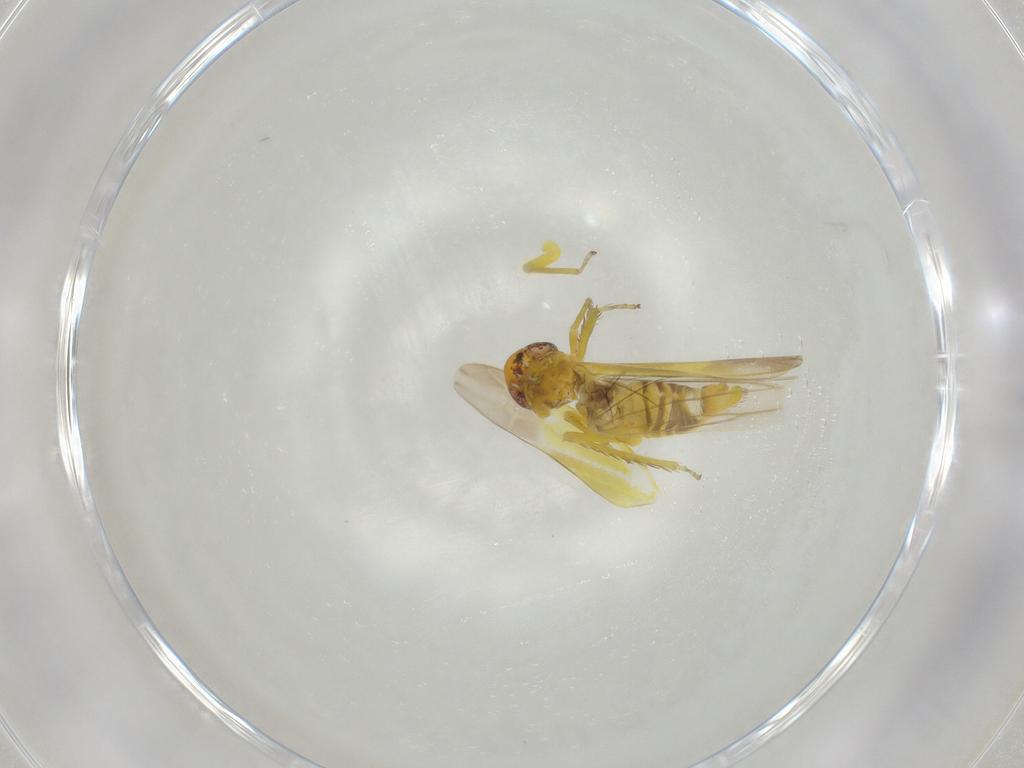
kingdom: Animalia
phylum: Arthropoda
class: Insecta
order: Hemiptera
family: Cicadellidae
